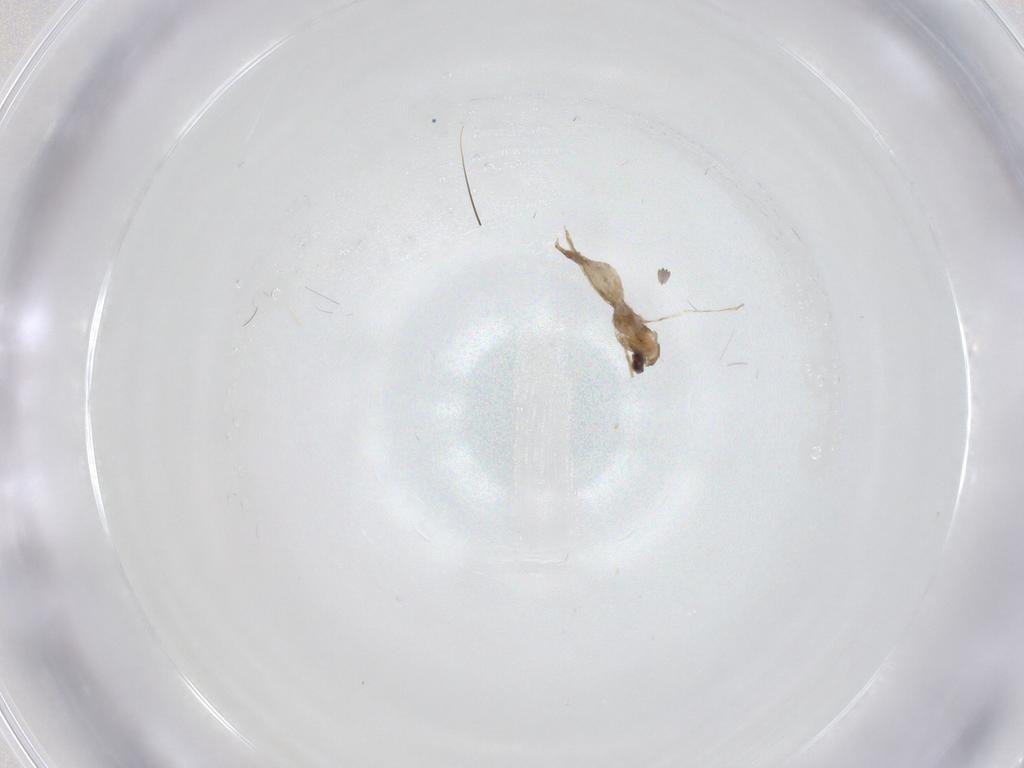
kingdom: Animalia
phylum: Arthropoda
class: Insecta
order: Diptera
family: Cecidomyiidae
